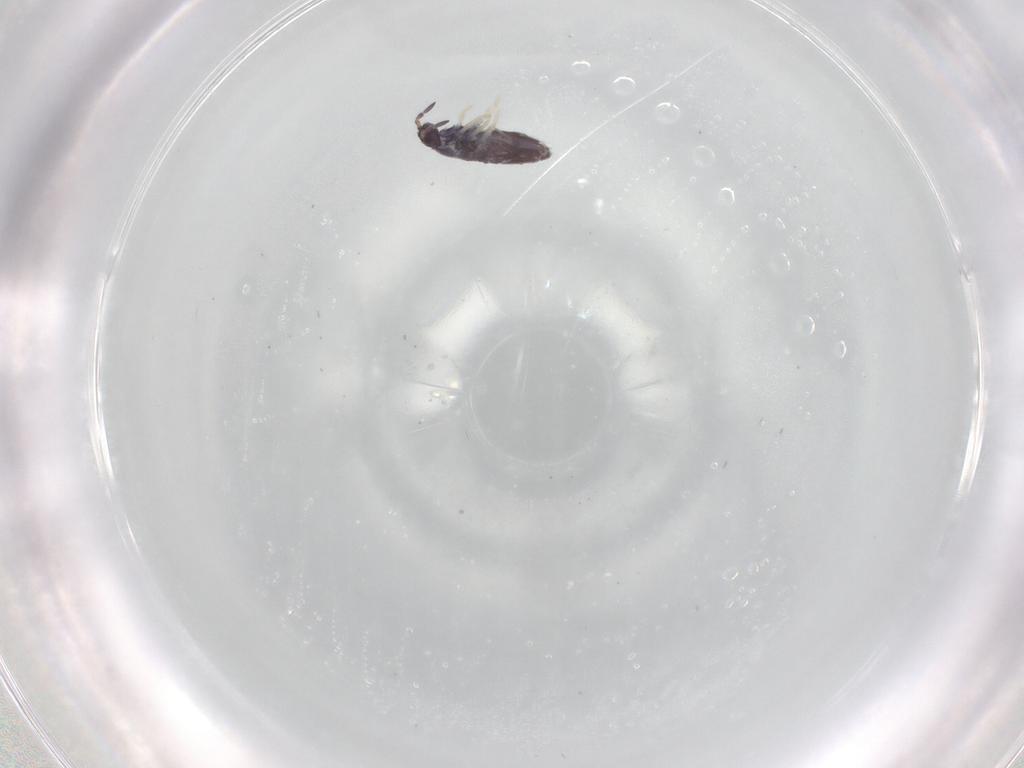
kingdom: Animalia
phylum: Arthropoda
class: Collembola
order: Entomobryomorpha
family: Entomobryidae
